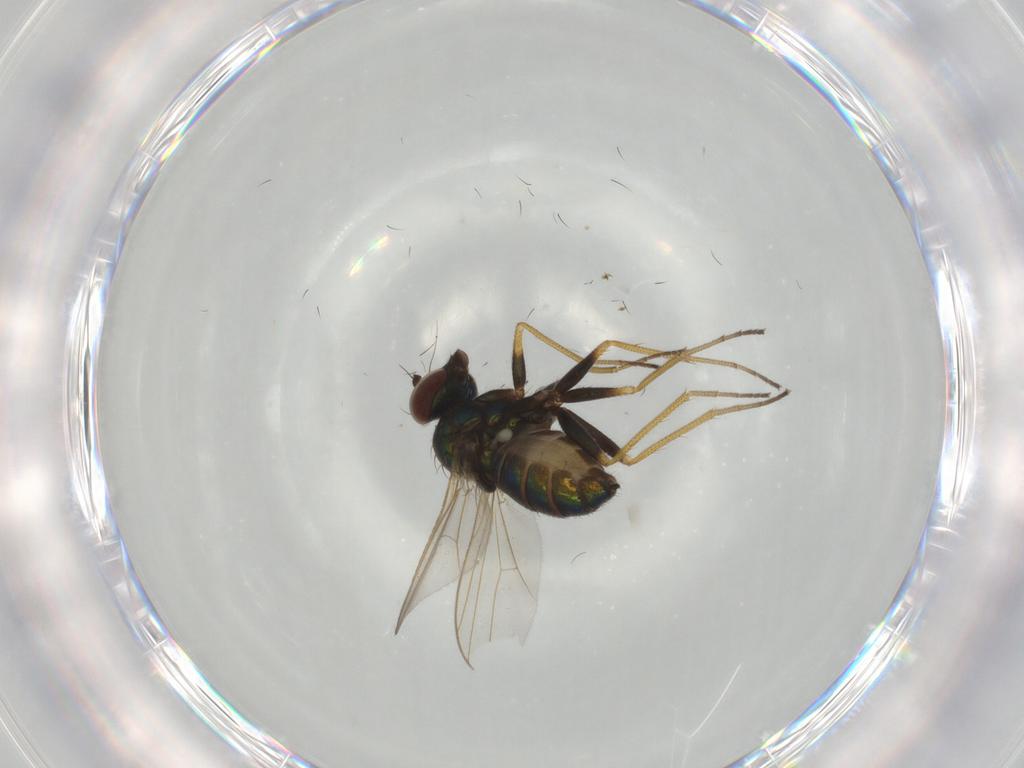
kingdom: Animalia
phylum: Arthropoda
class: Insecta
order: Diptera
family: Dolichopodidae
